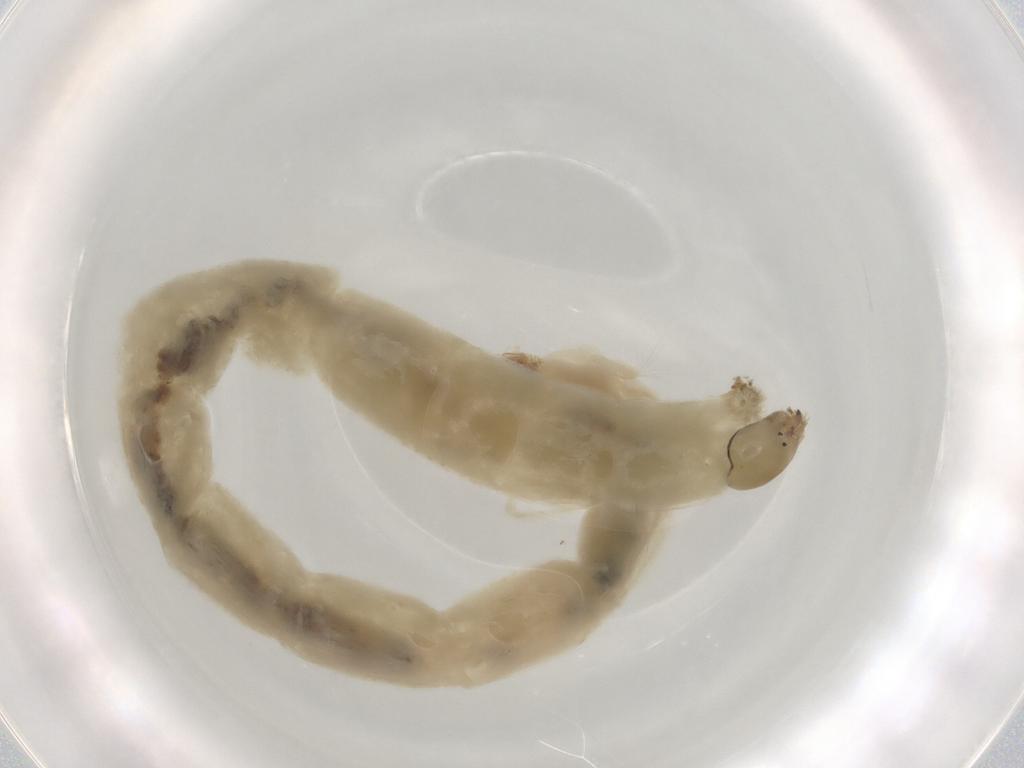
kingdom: Animalia
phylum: Arthropoda
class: Insecta
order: Diptera
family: Chironomidae
